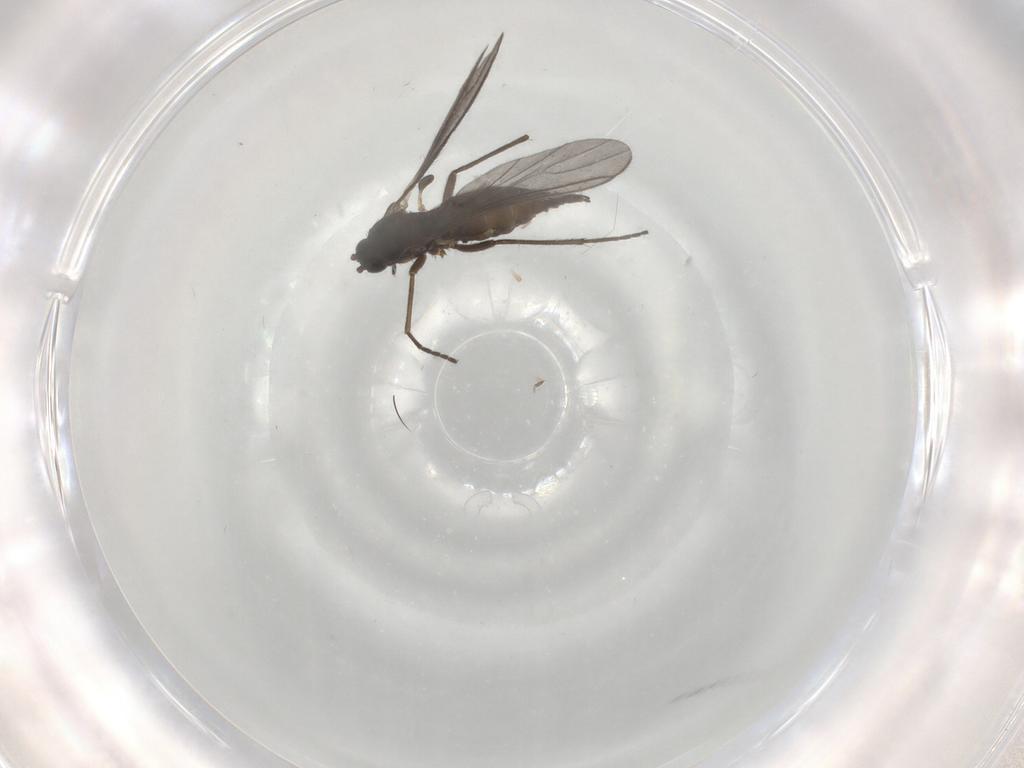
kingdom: Animalia
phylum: Arthropoda
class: Insecta
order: Diptera
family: Sciaridae
